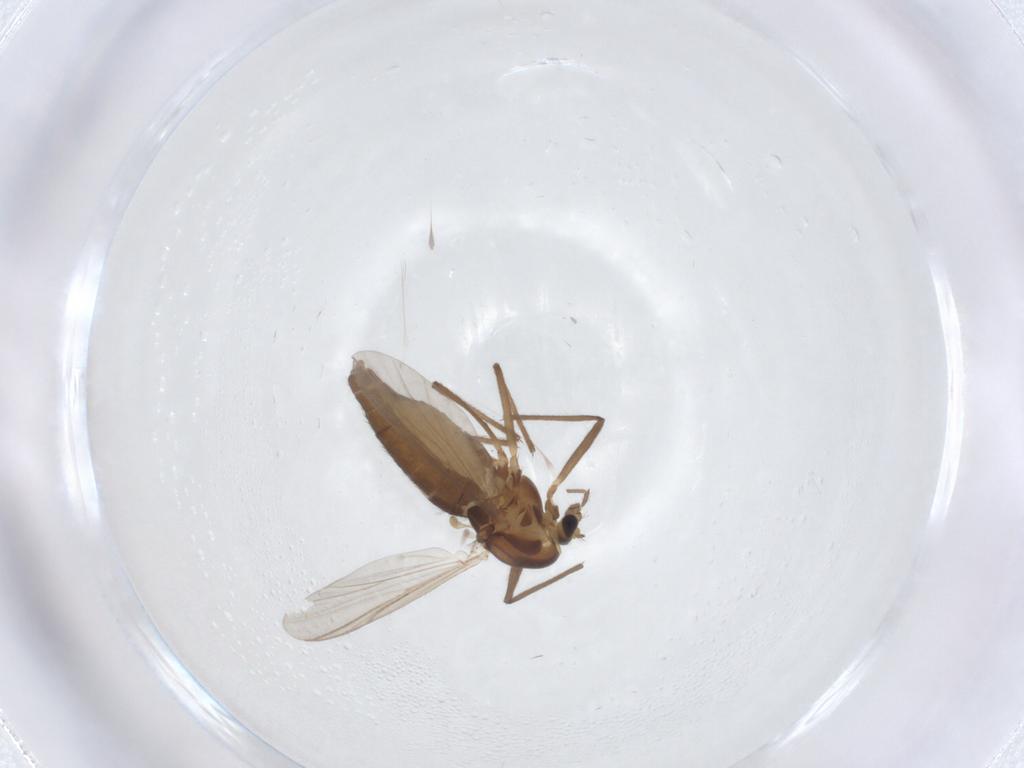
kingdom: Animalia
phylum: Arthropoda
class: Insecta
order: Diptera
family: Chironomidae
